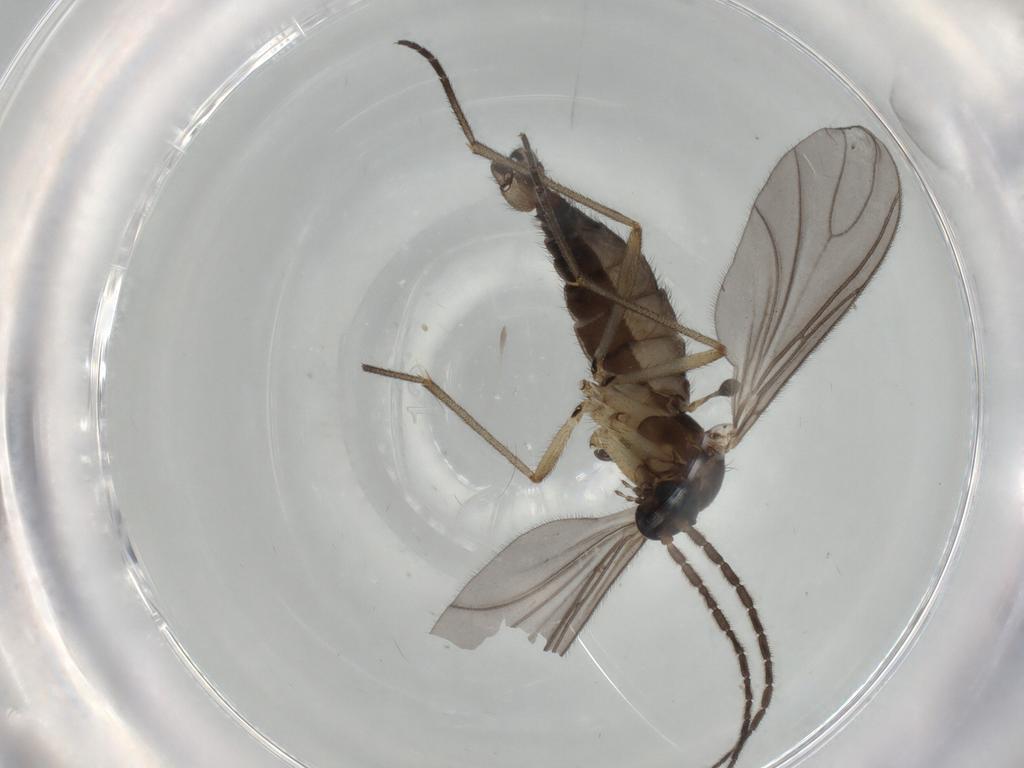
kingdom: Animalia
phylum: Arthropoda
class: Insecta
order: Diptera
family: Sciaridae
